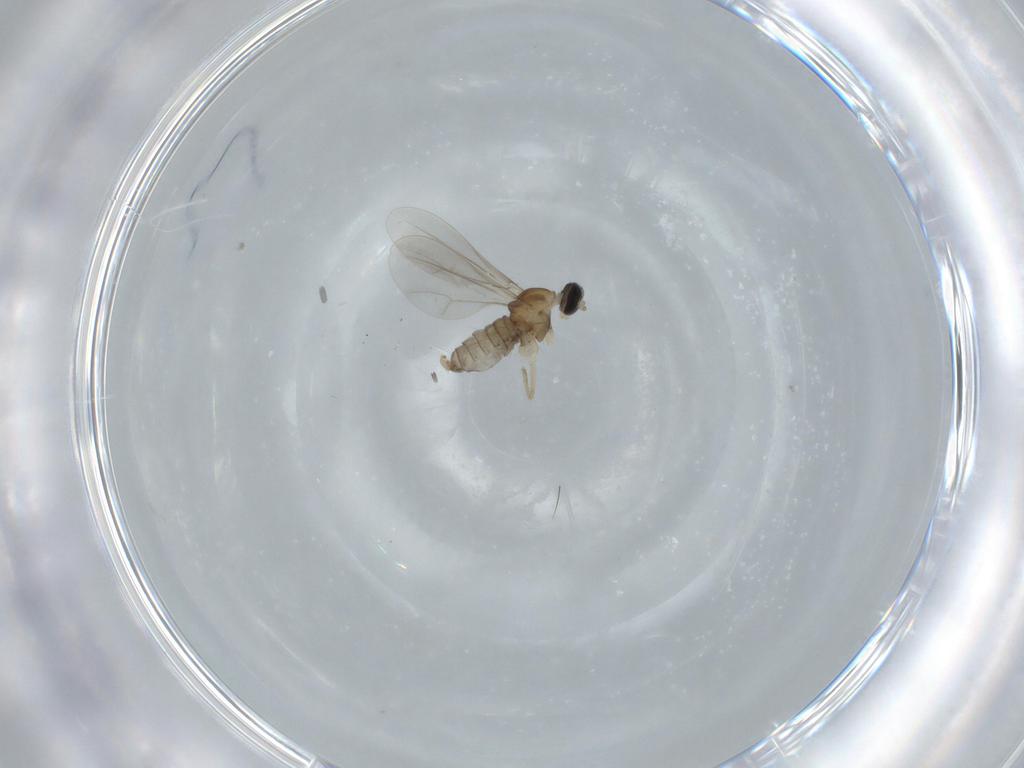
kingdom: Animalia
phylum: Arthropoda
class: Insecta
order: Diptera
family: Cecidomyiidae
